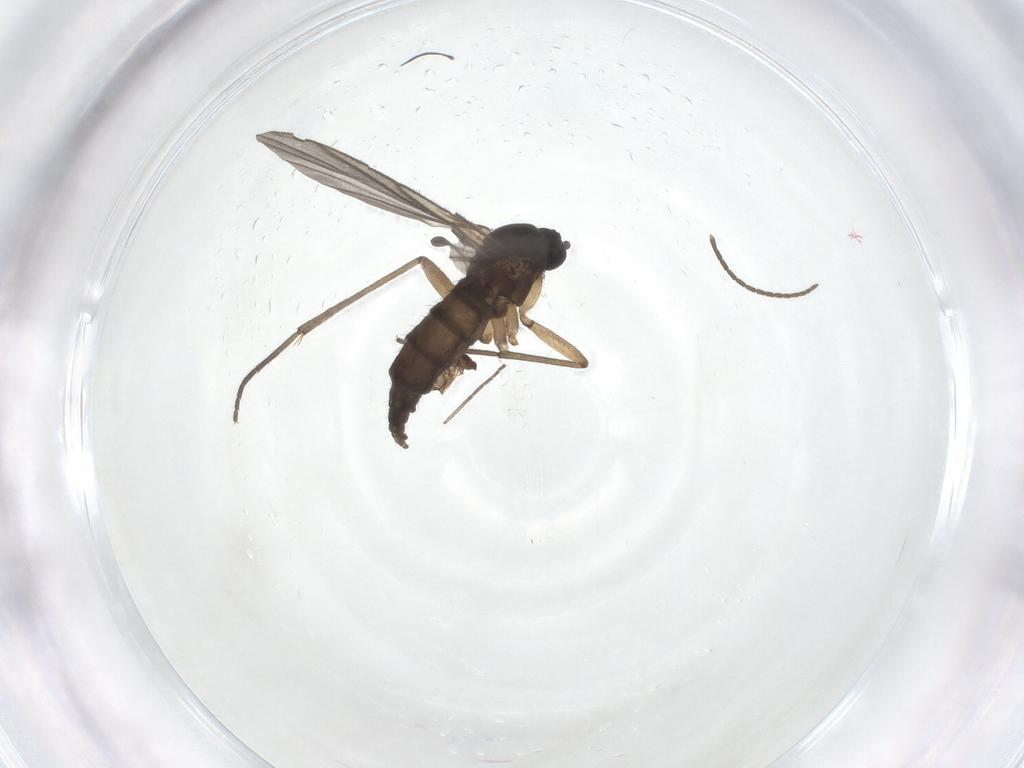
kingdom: Animalia
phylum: Arthropoda
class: Insecta
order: Diptera
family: Sciaridae
